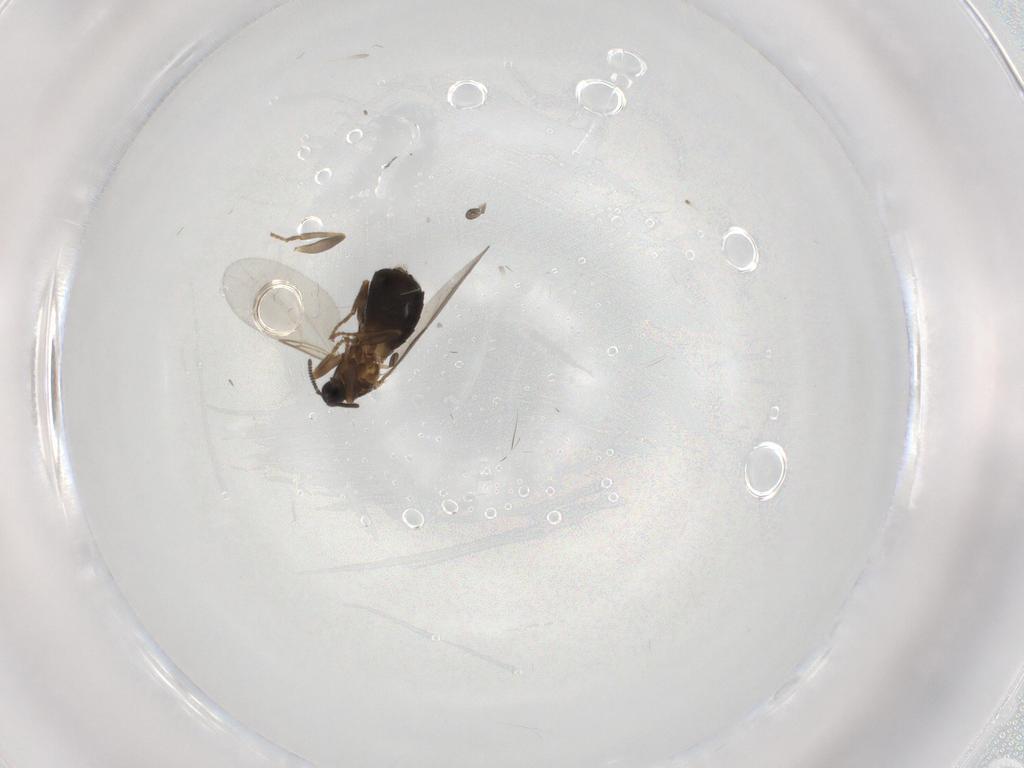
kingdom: Animalia
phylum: Arthropoda
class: Insecta
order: Diptera
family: Scatopsidae
